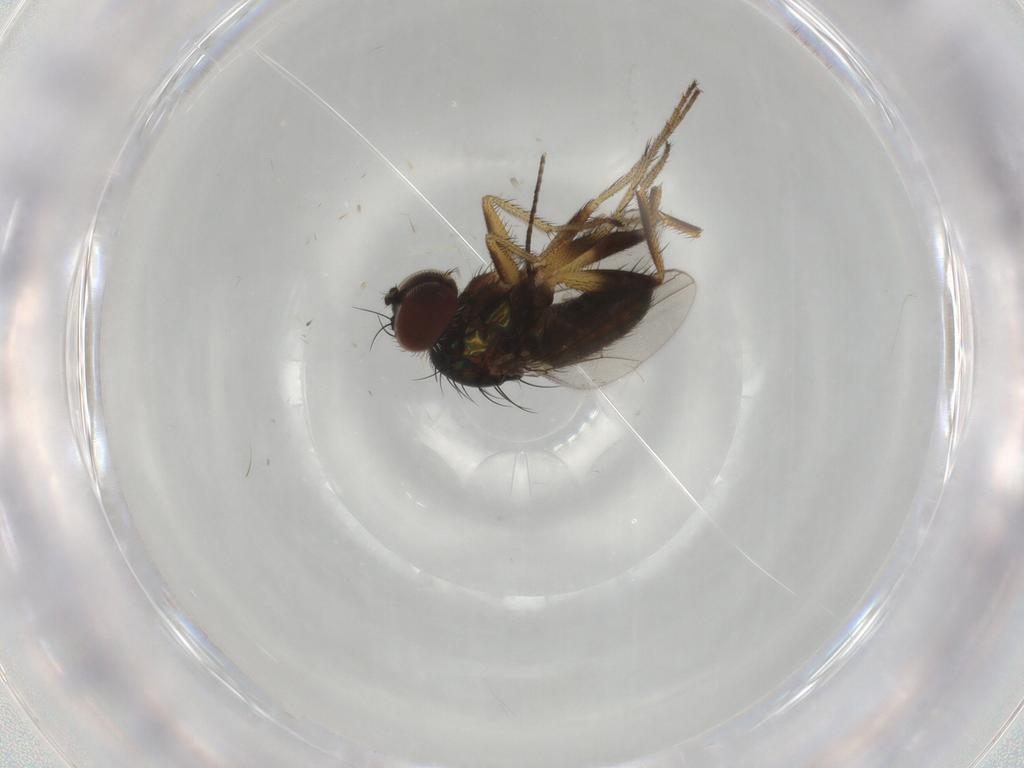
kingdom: Animalia
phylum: Arthropoda
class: Insecta
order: Diptera
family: Dolichopodidae
